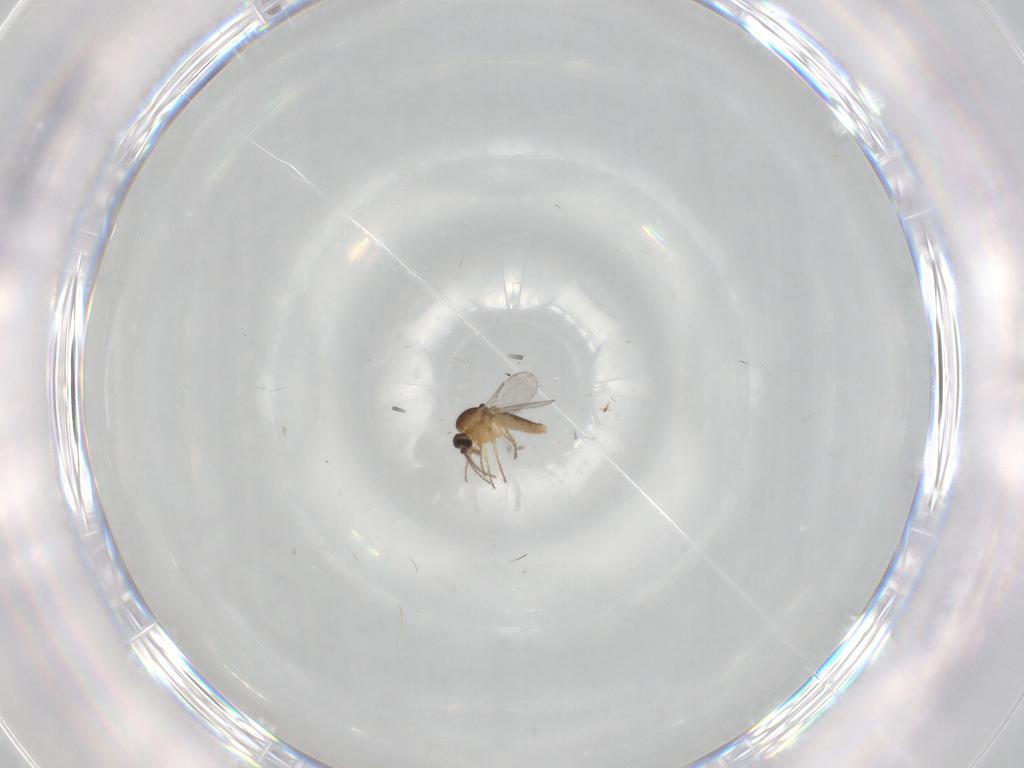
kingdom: Animalia
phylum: Arthropoda
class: Insecta
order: Diptera
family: Ceratopogonidae
